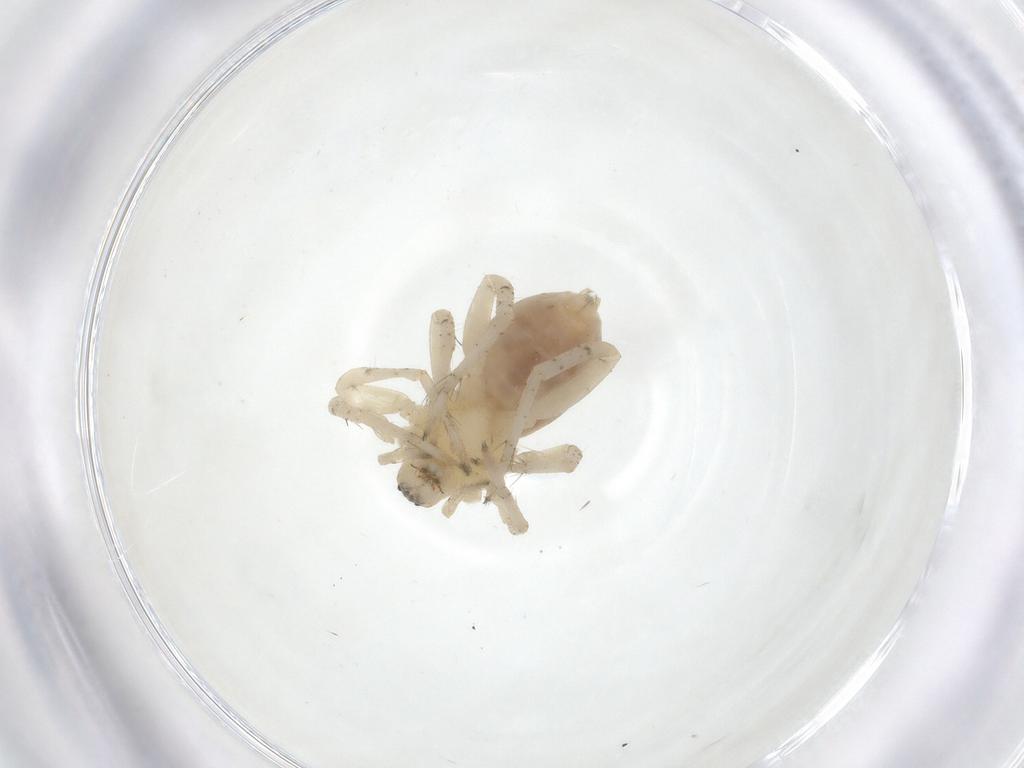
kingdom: Animalia
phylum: Arthropoda
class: Arachnida
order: Araneae
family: Anyphaenidae
